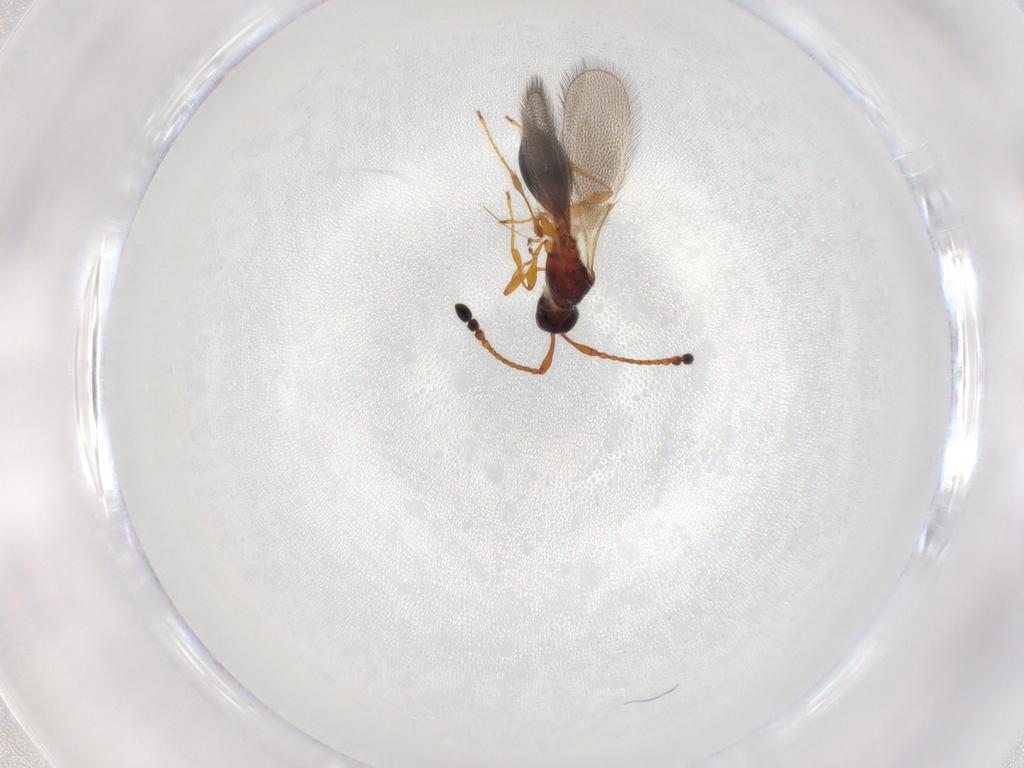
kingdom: Animalia
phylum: Arthropoda
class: Insecta
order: Hymenoptera
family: Diapriidae
